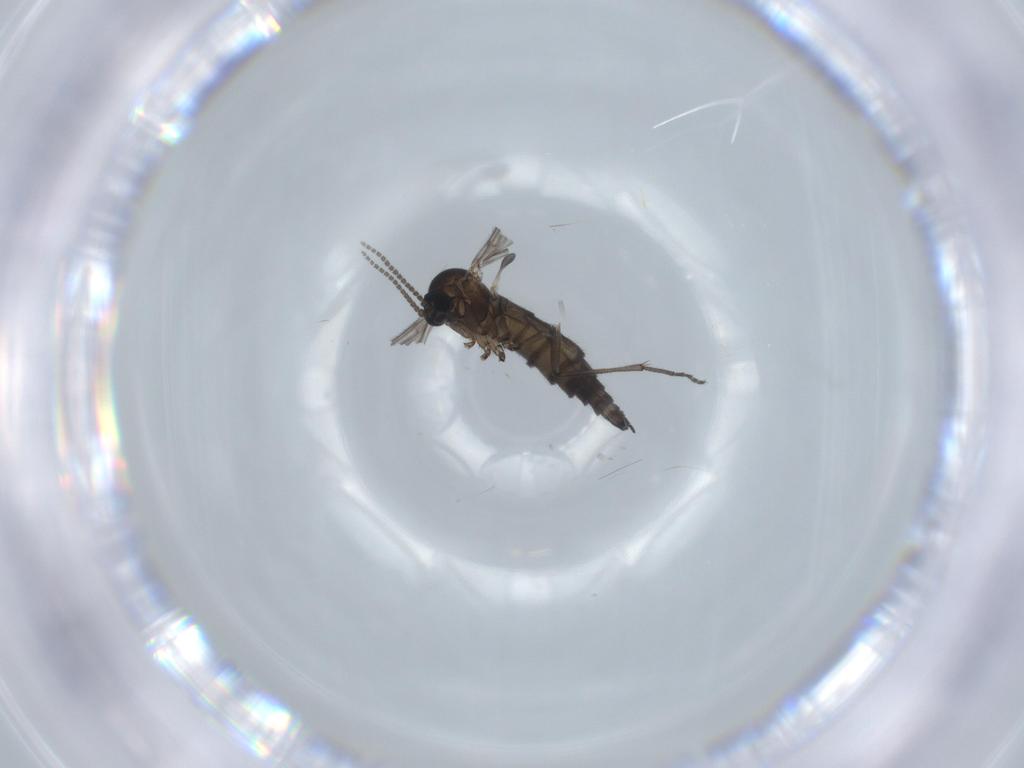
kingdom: Animalia
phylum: Arthropoda
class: Insecta
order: Diptera
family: Sciaridae
